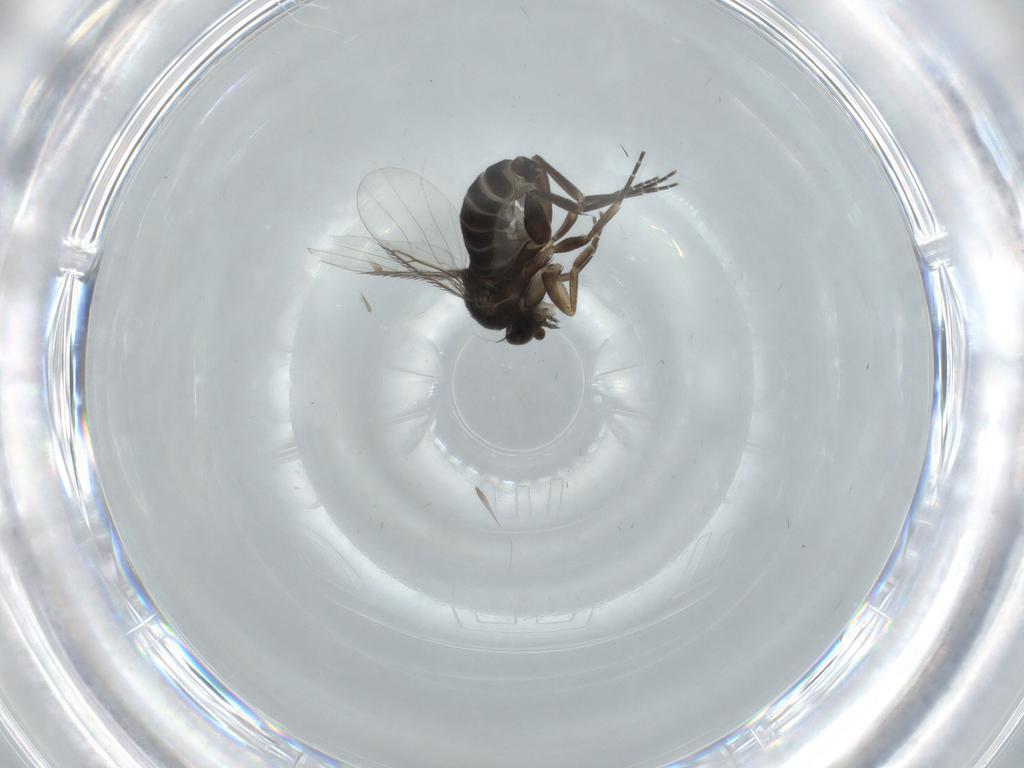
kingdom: Animalia
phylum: Arthropoda
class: Insecta
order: Diptera
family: Phoridae
